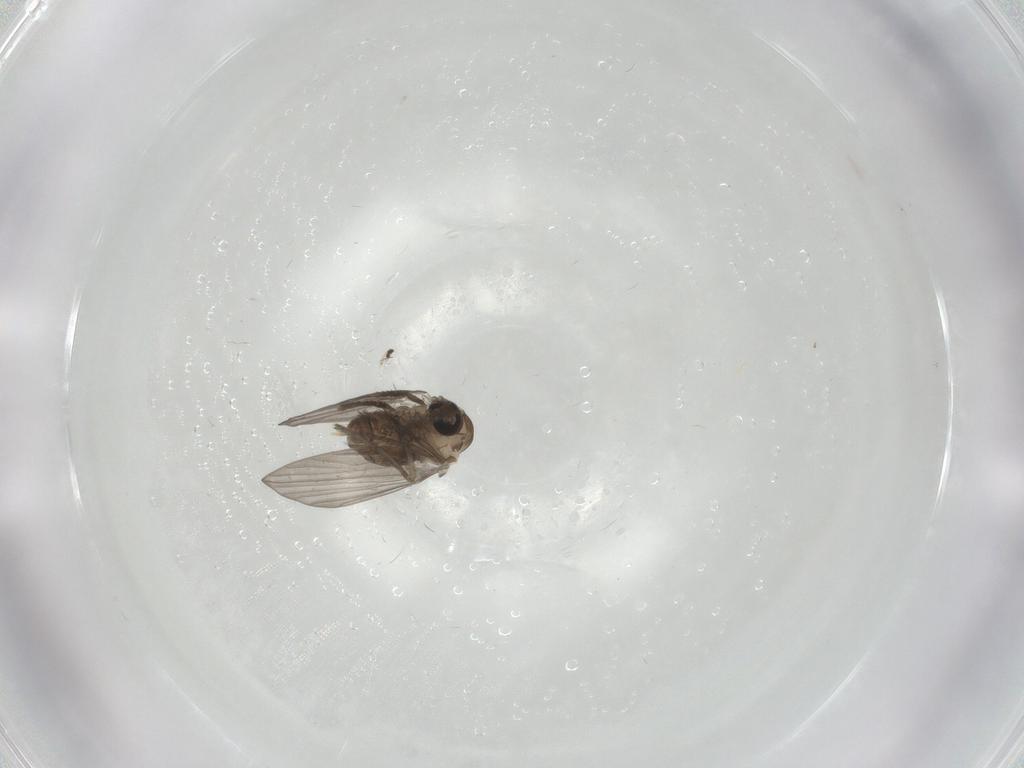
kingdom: Animalia
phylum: Arthropoda
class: Insecta
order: Diptera
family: Psychodidae
